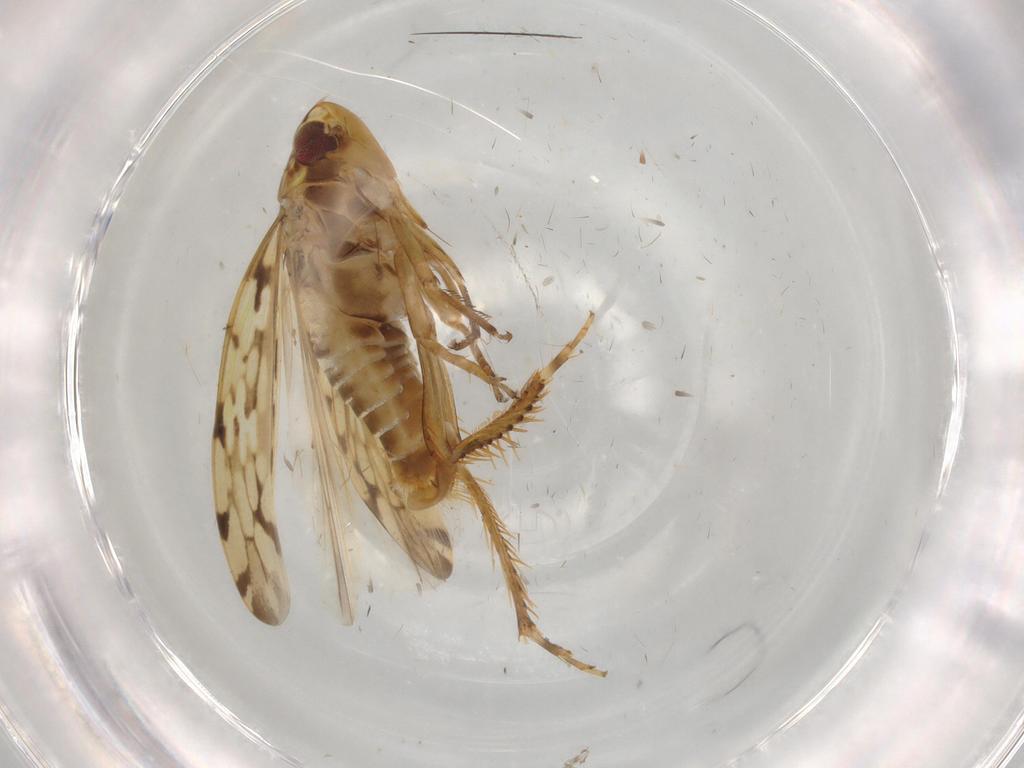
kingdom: Animalia
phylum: Arthropoda
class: Insecta
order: Hemiptera
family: Cicadellidae
